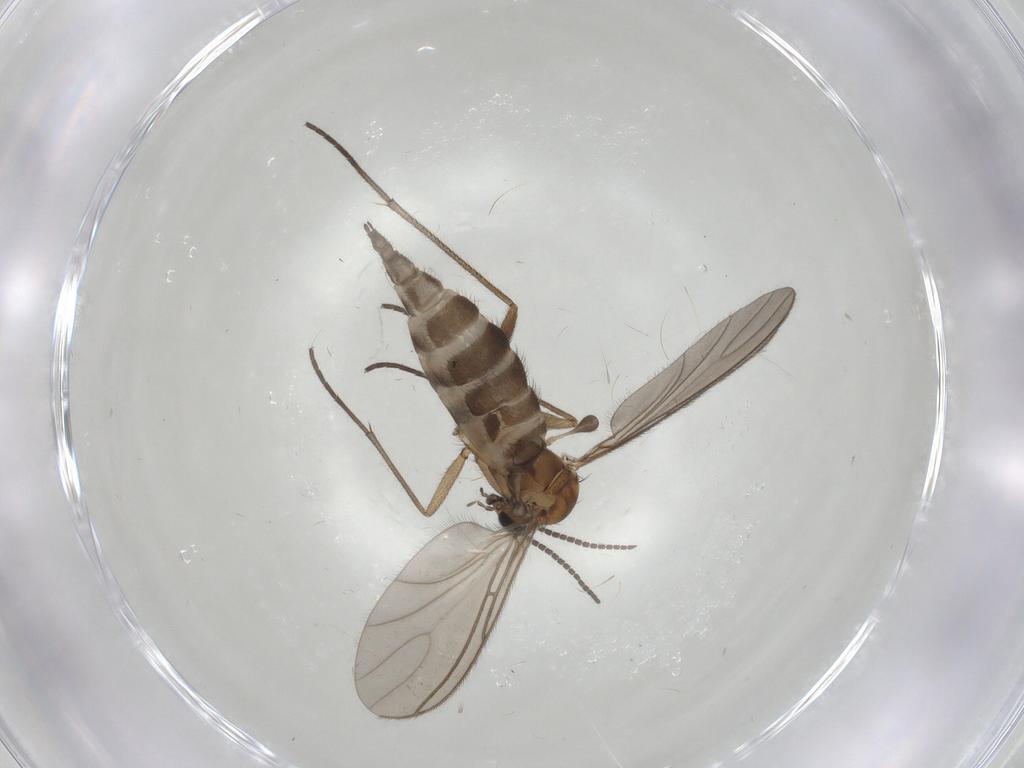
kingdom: Animalia
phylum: Arthropoda
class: Insecta
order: Diptera
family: Sciaridae
